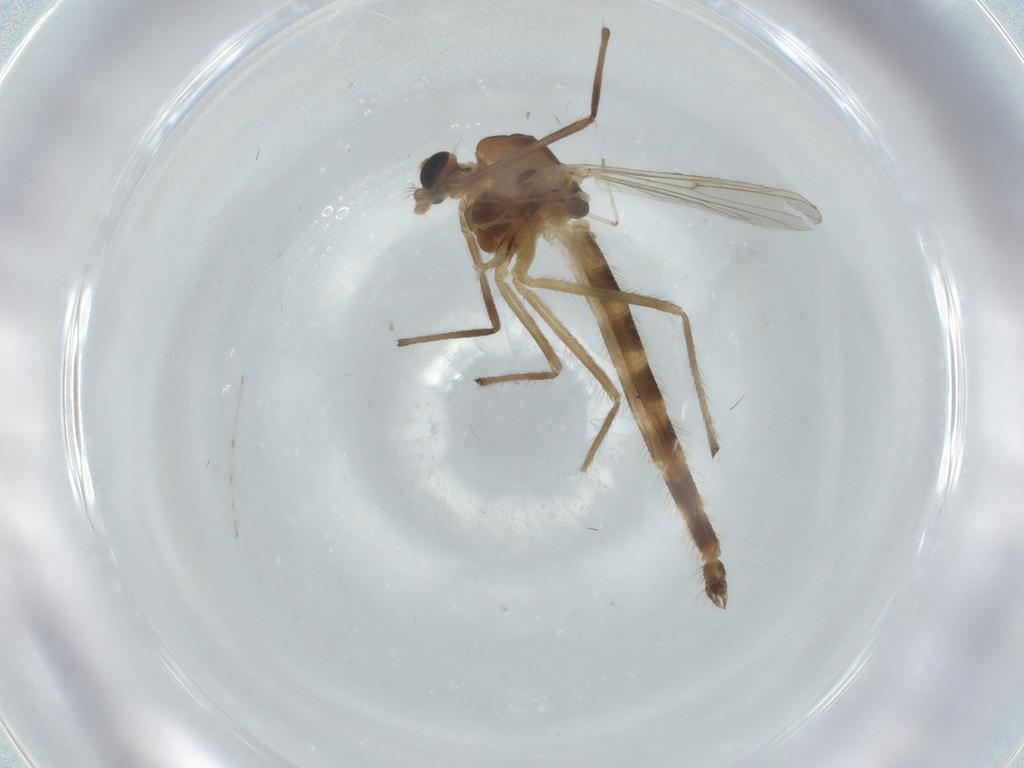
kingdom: Animalia
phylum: Arthropoda
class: Insecta
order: Diptera
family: Chironomidae
